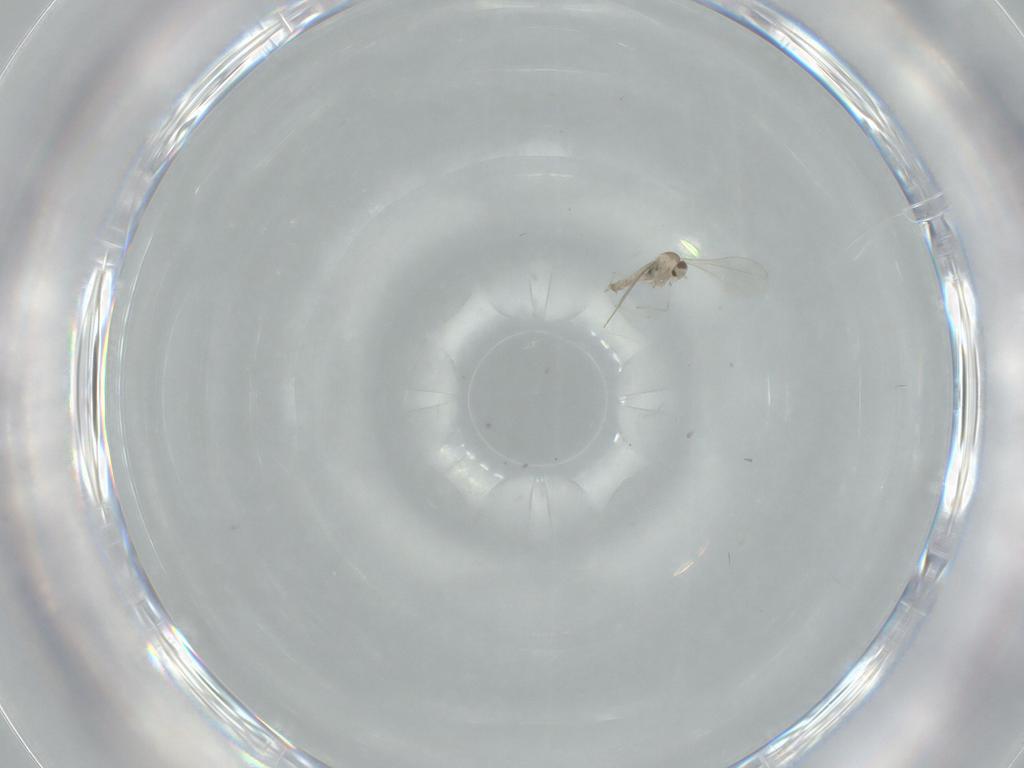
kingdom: Animalia
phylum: Arthropoda
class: Insecta
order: Diptera
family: Cecidomyiidae
